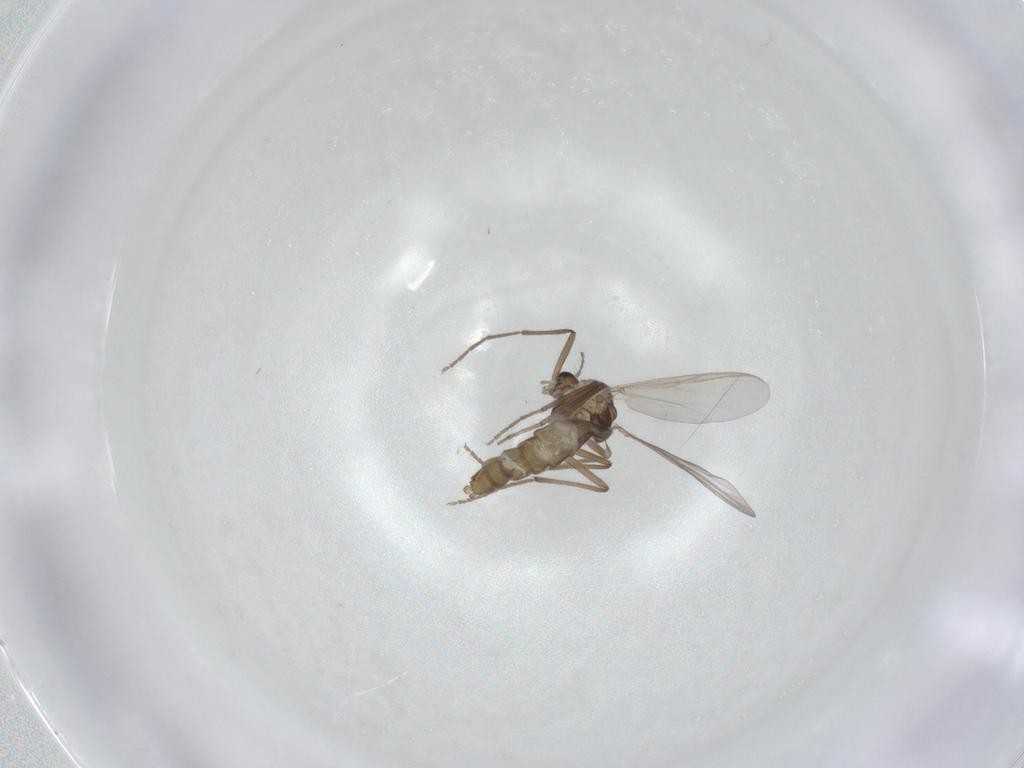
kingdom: Animalia
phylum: Arthropoda
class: Insecta
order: Diptera
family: Chironomidae
